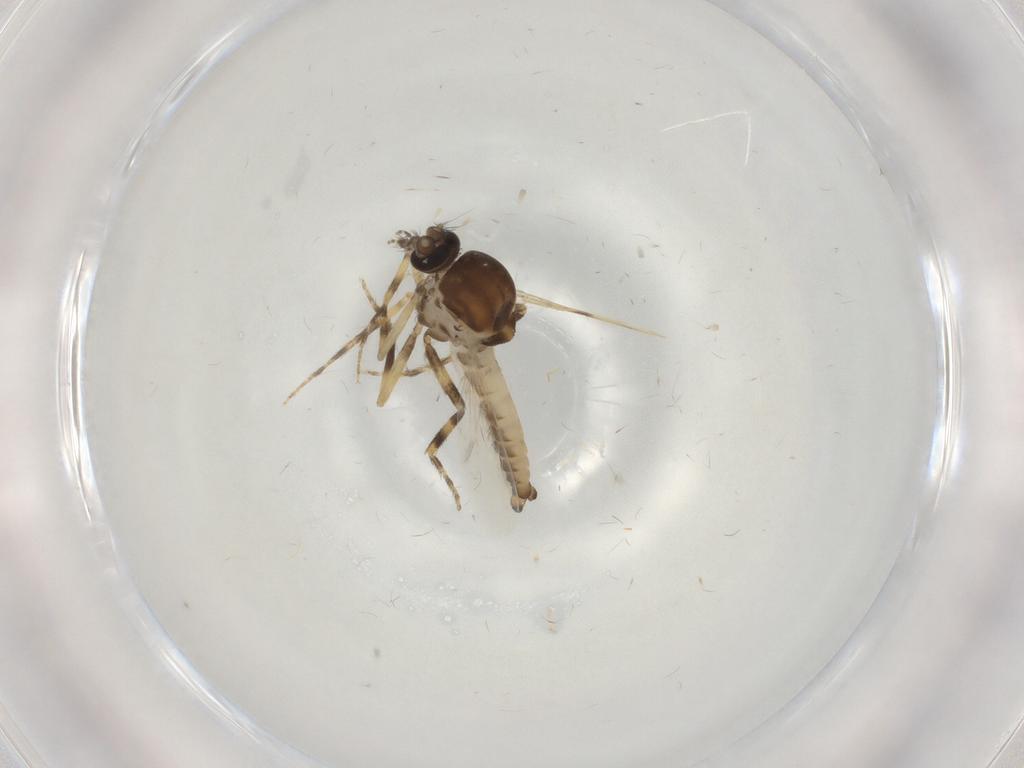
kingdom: Animalia
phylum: Arthropoda
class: Insecta
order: Diptera
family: Ceratopogonidae
